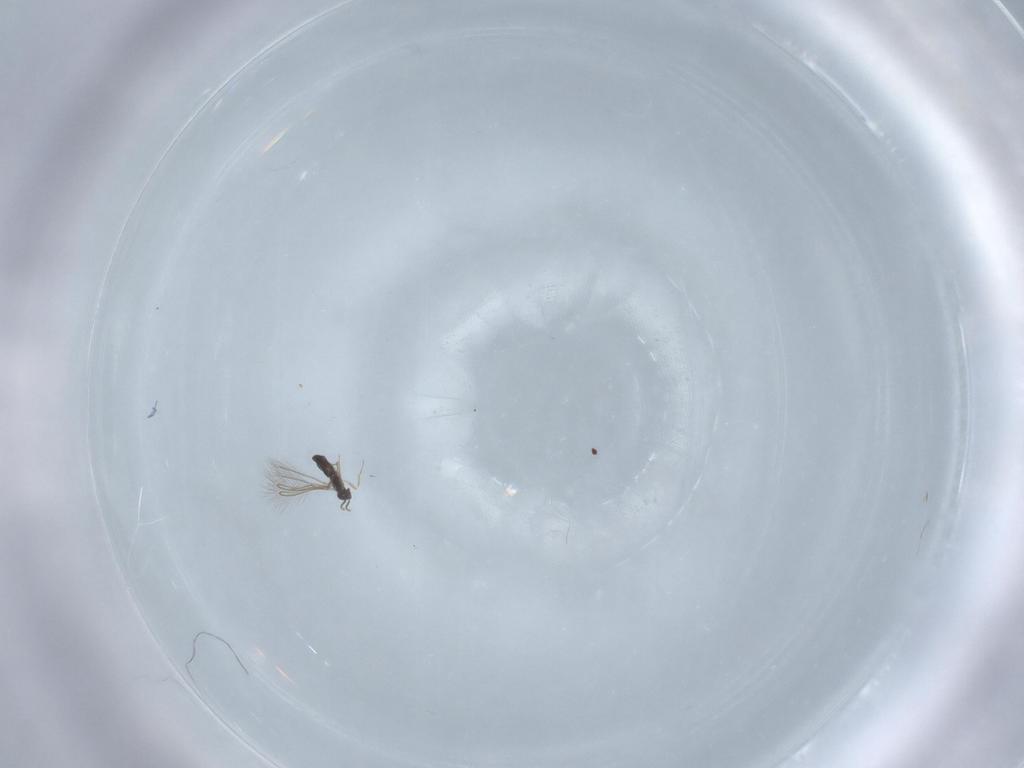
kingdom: Animalia
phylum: Arthropoda
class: Insecta
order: Hymenoptera
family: Mymaridae
